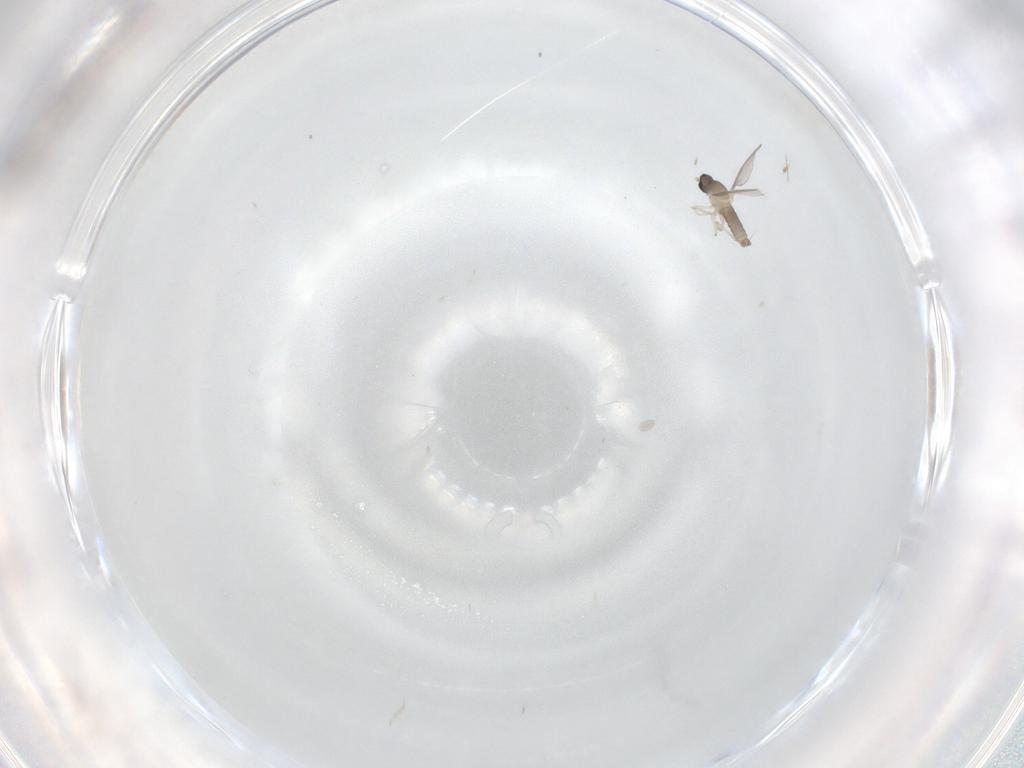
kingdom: Animalia
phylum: Arthropoda
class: Insecta
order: Diptera
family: Psychodidae
